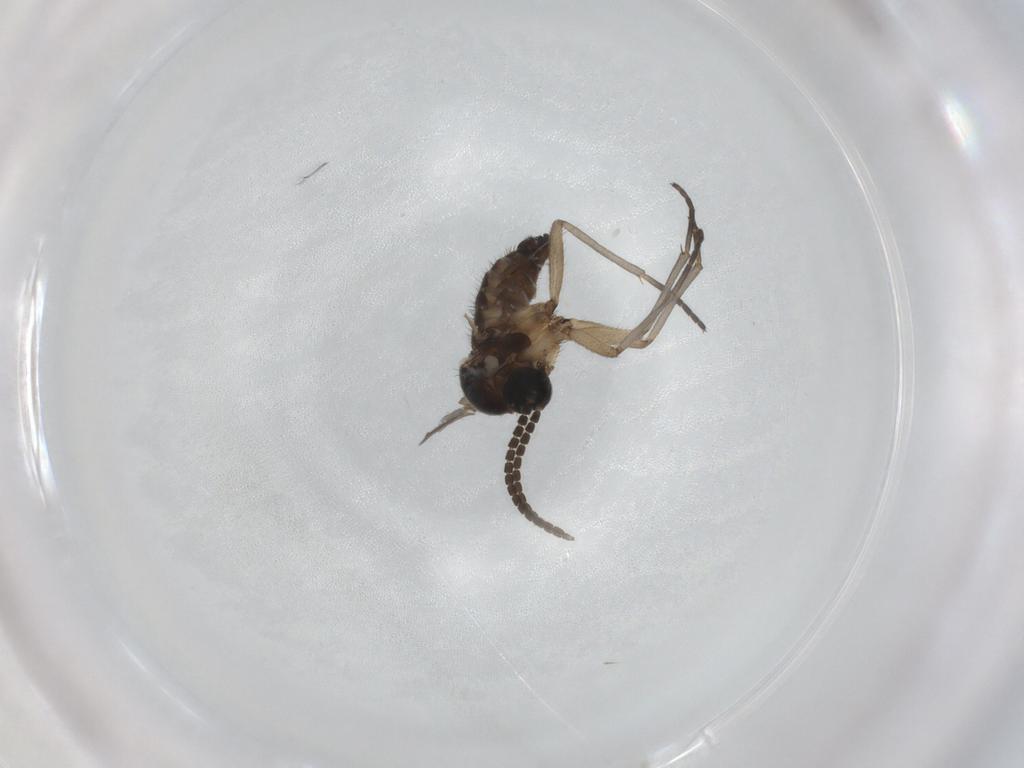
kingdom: Animalia
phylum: Arthropoda
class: Insecta
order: Diptera
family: Sciaridae
